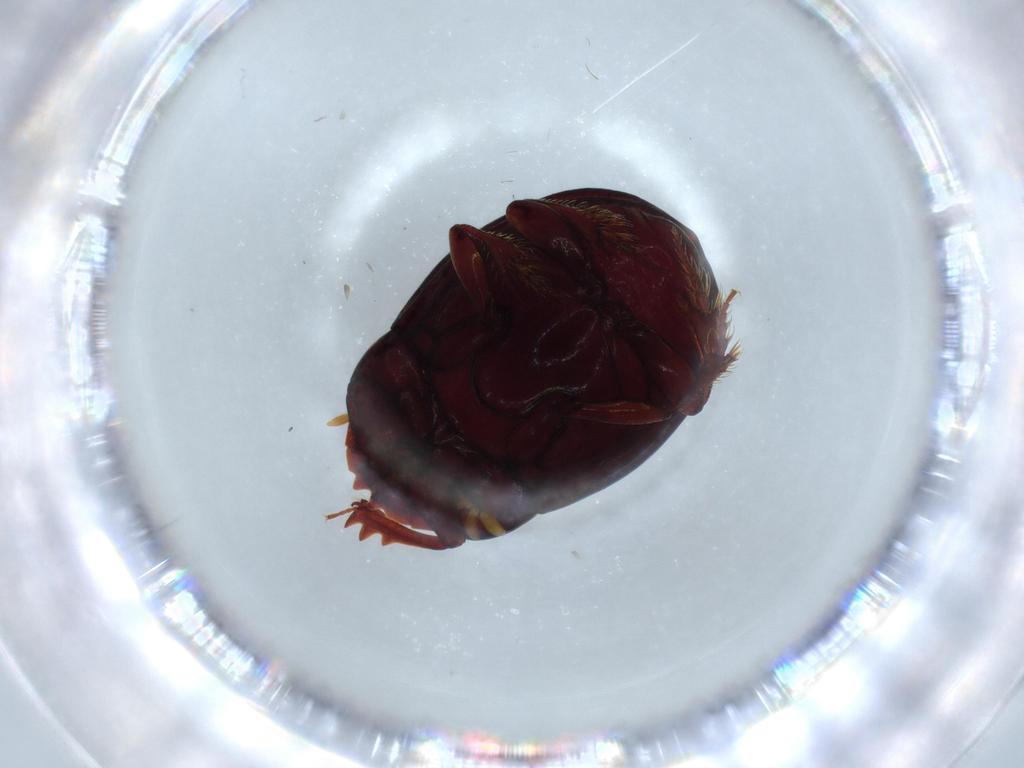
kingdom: Animalia
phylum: Arthropoda
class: Insecta
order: Coleoptera
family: Scarabaeidae
